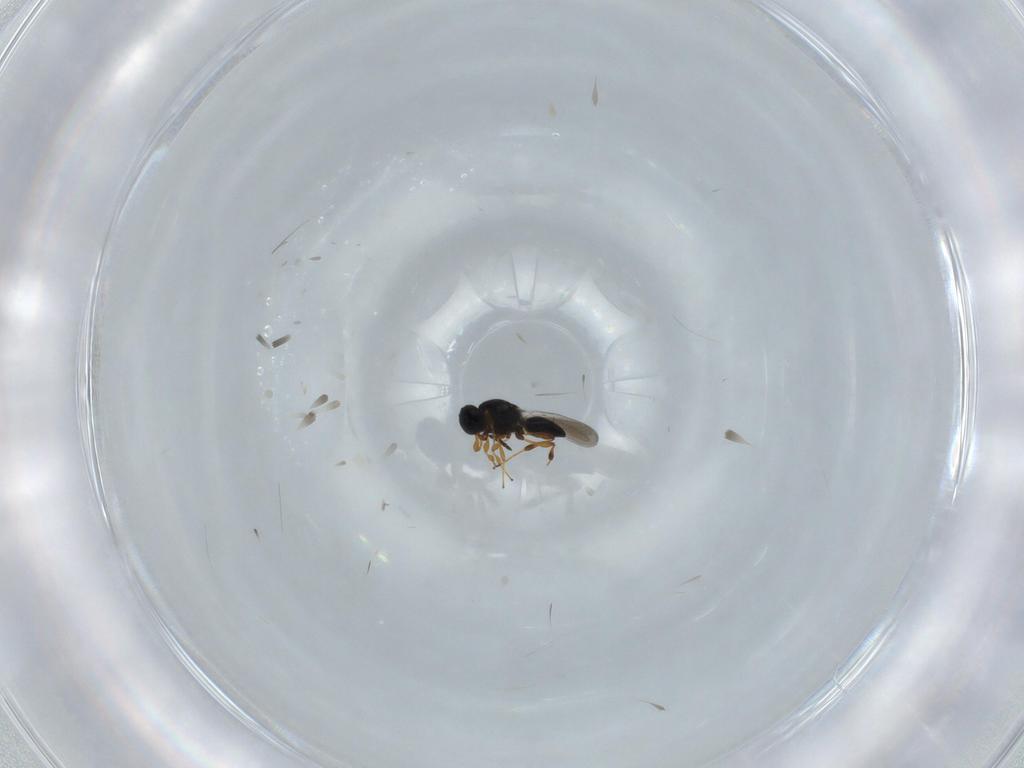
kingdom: Animalia
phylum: Arthropoda
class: Insecta
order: Hymenoptera
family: Platygastridae
